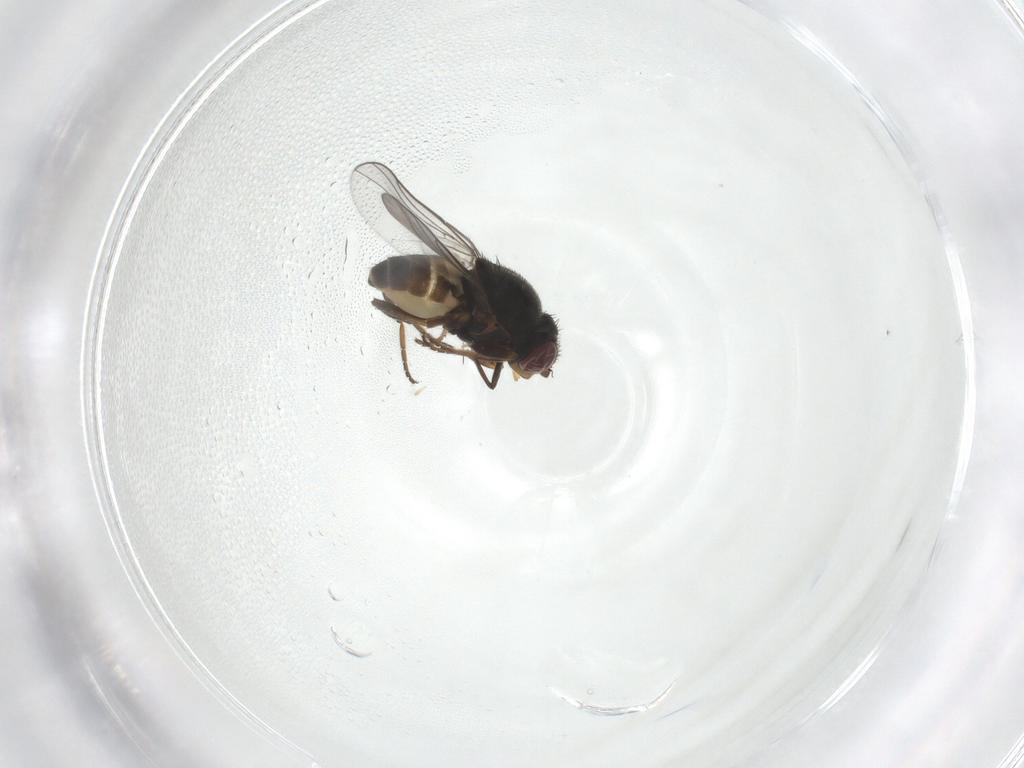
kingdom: Animalia
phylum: Arthropoda
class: Insecta
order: Diptera
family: Chloropidae
